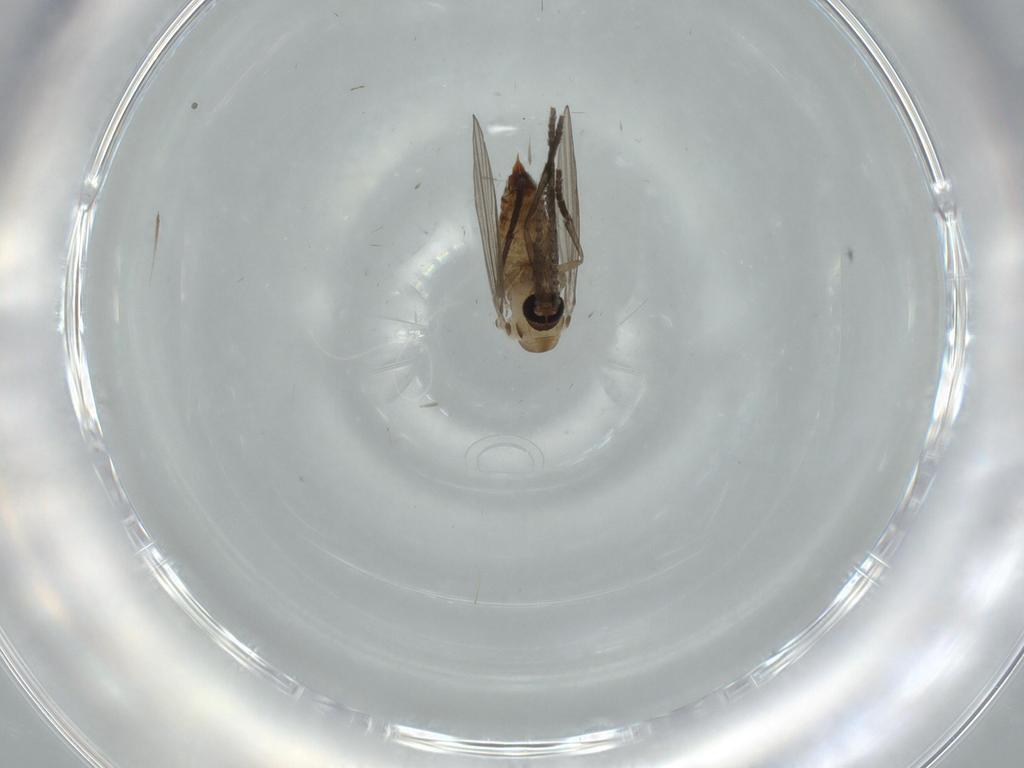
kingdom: Animalia
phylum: Arthropoda
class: Insecta
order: Diptera
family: Psychodidae
